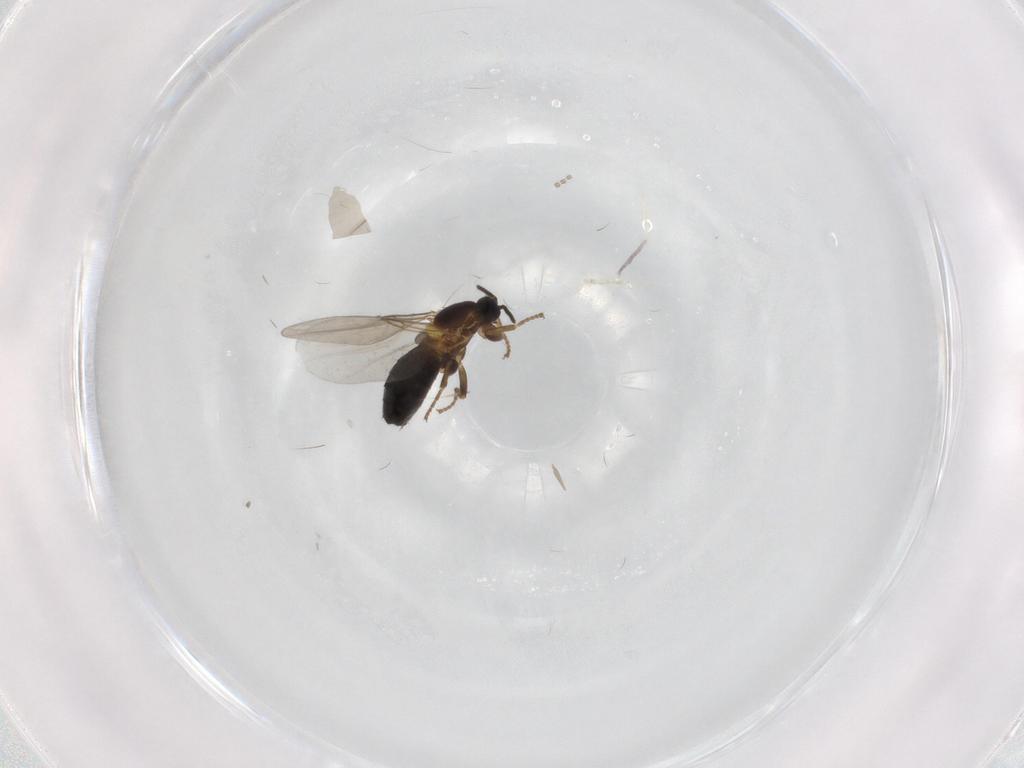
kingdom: Animalia
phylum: Arthropoda
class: Insecta
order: Diptera
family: Scatopsidae
